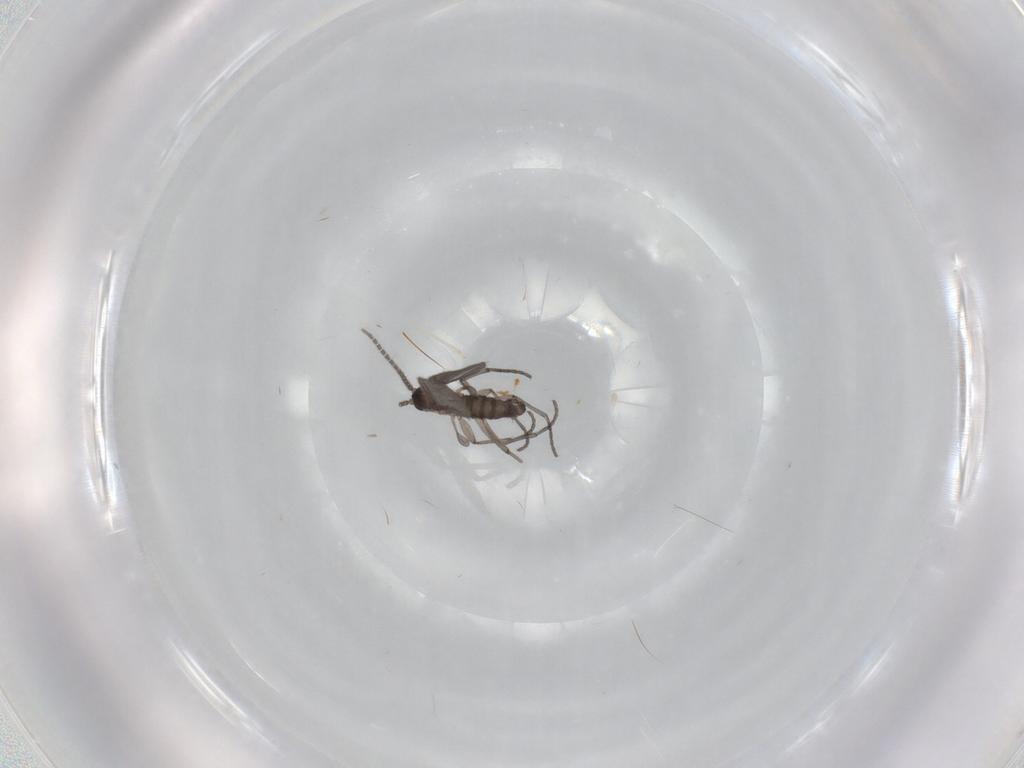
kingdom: Animalia
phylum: Arthropoda
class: Insecta
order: Diptera
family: Sciaridae
